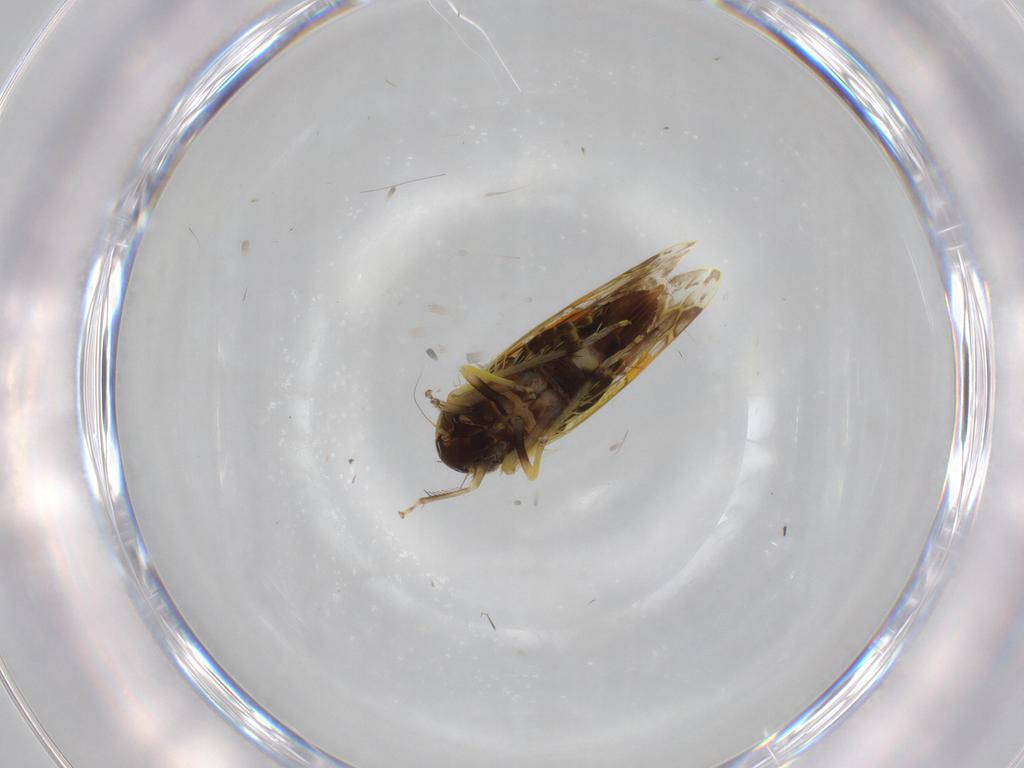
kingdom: Animalia
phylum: Arthropoda
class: Insecta
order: Hemiptera
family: Cicadellidae
